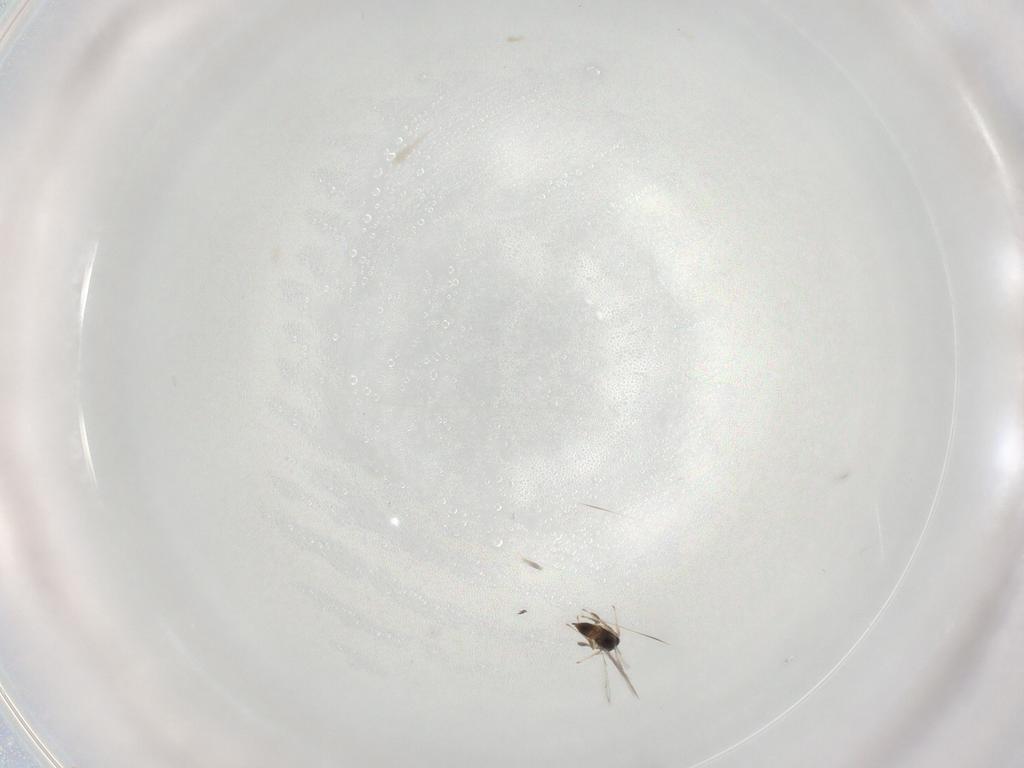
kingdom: Animalia
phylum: Arthropoda
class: Insecta
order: Hymenoptera
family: Mymaridae
